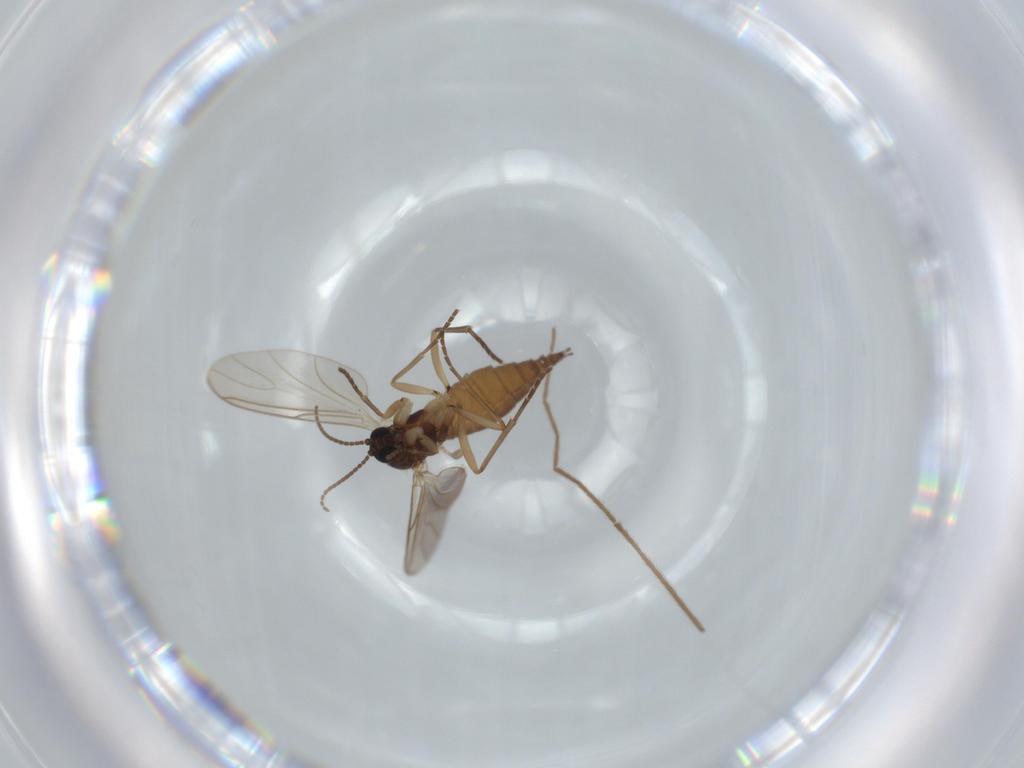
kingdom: Animalia
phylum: Arthropoda
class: Insecta
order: Diptera
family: Sphaeroceridae
